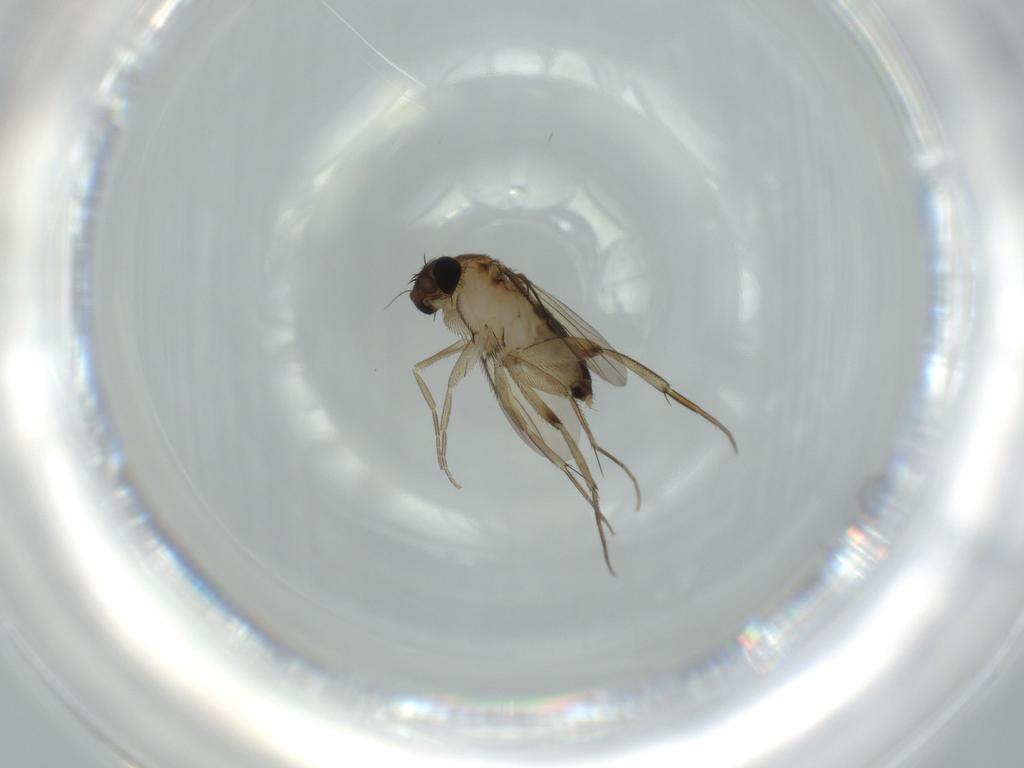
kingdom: Animalia
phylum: Arthropoda
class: Insecta
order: Diptera
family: Phoridae
